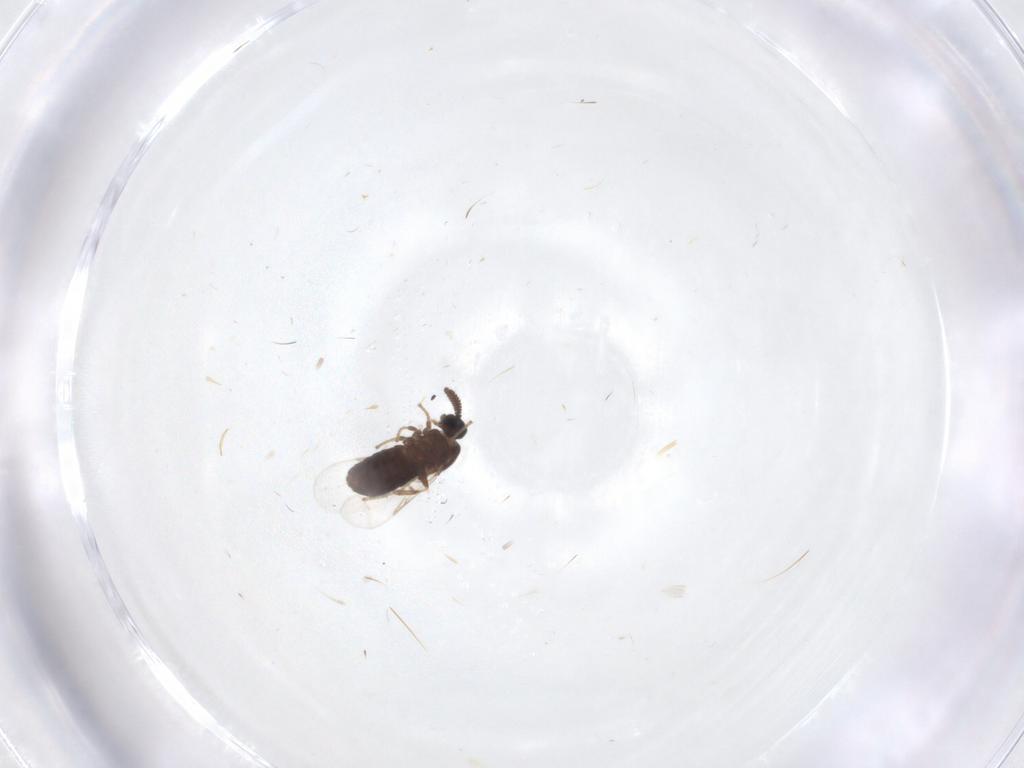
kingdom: Animalia
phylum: Arthropoda
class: Insecta
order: Diptera
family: Scatopsidae
